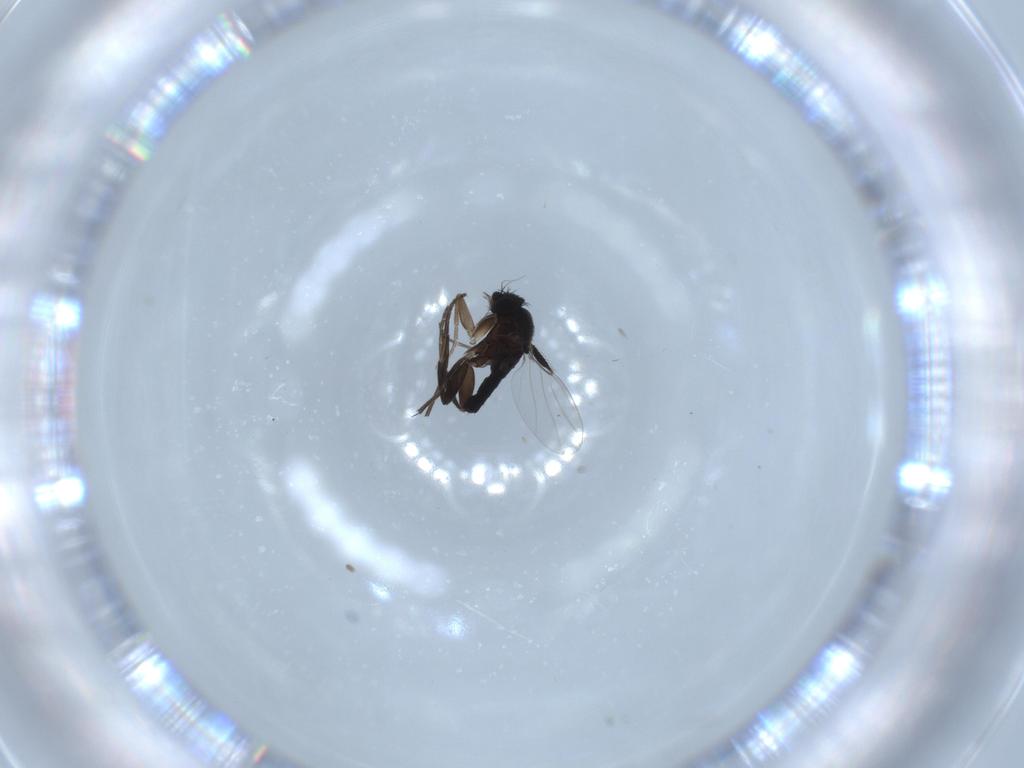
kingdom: Animalia
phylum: Arthropoda
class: Insecta
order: Diptera
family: Phoridae
